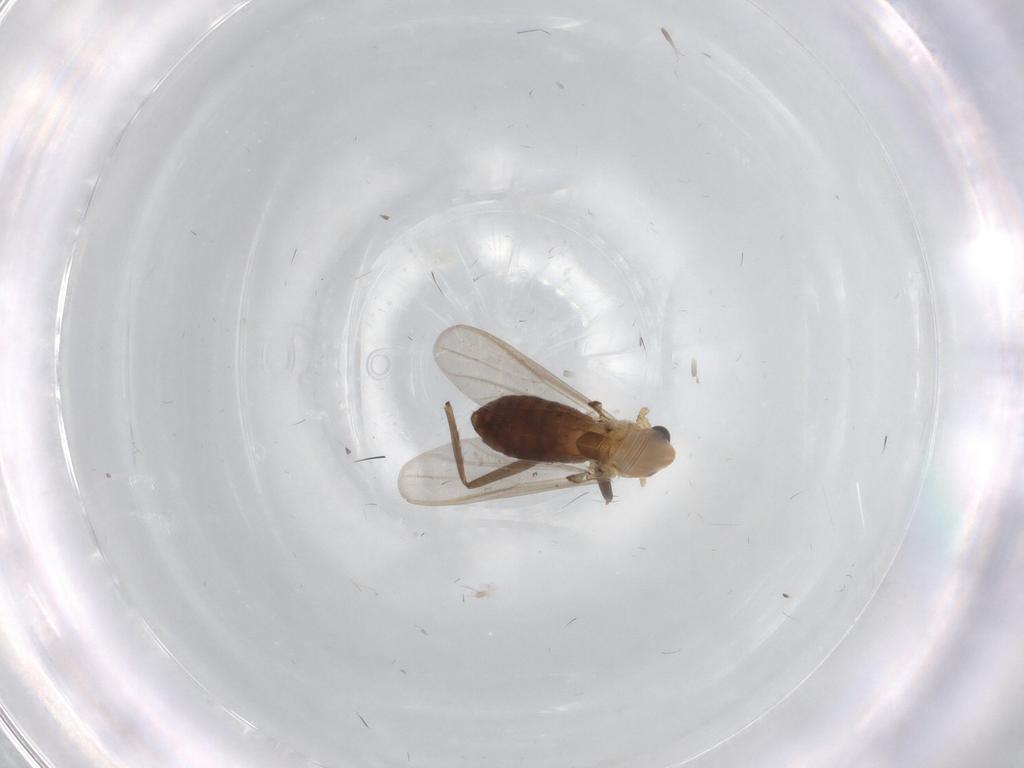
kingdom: Animalia
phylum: Arthropoda
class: Insecta
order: Diptera
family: Chironomidae
